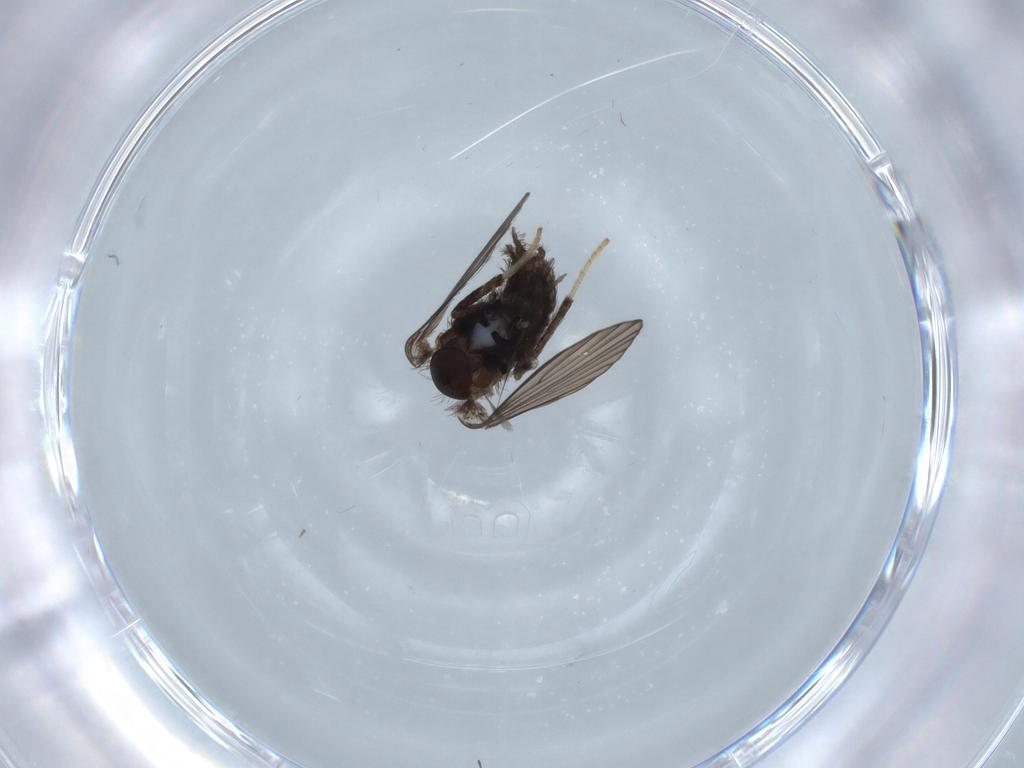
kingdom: Animalia
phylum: Arthropoda
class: Insecta
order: Diptera
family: Psychodidae
